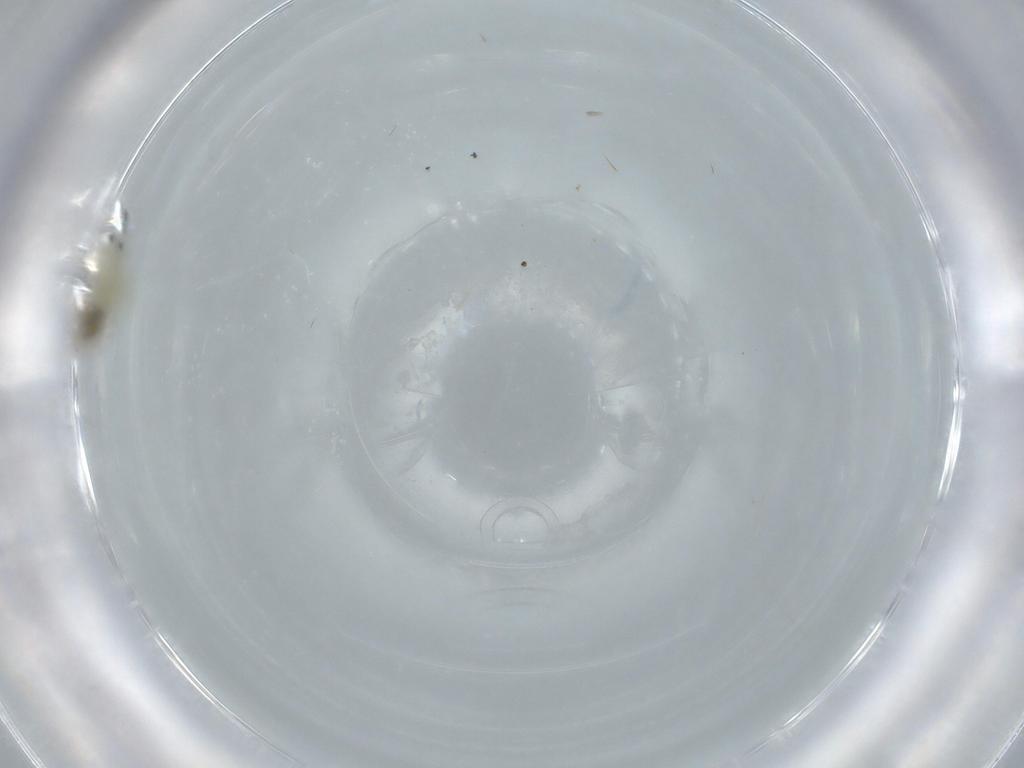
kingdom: Animalia
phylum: Arthropoda
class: Insecta
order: Hemiptera
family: Aleyrodidae
